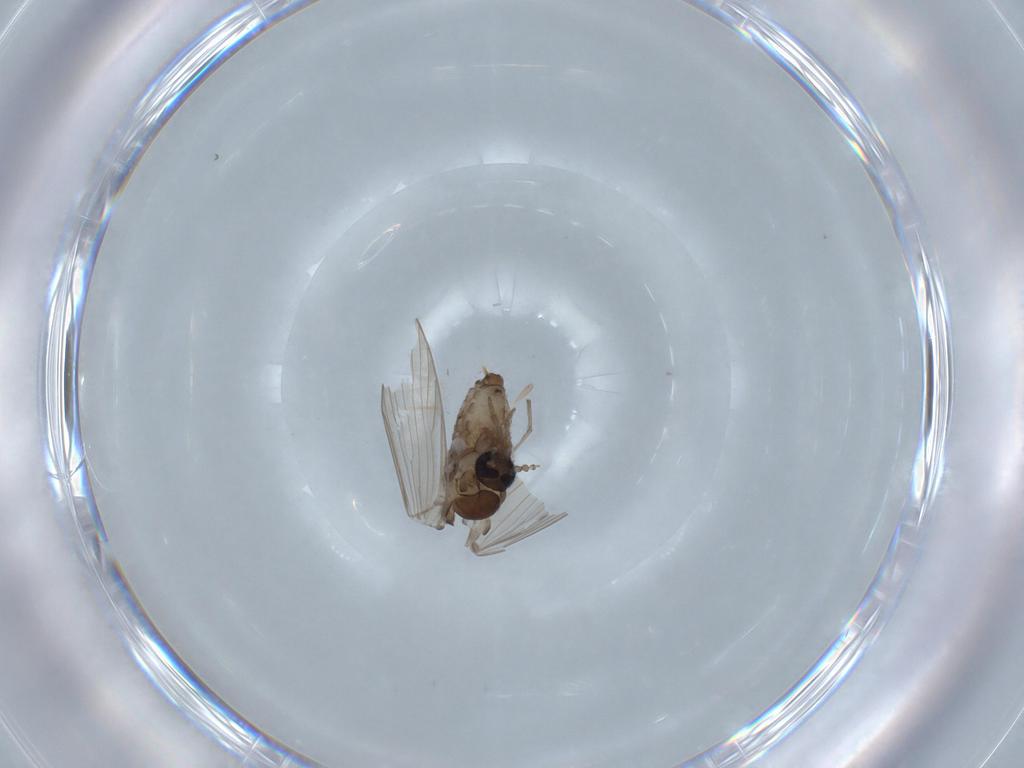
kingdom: Animalia
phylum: Arthropoda
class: Insecta
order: Diptera
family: Psychodidae
